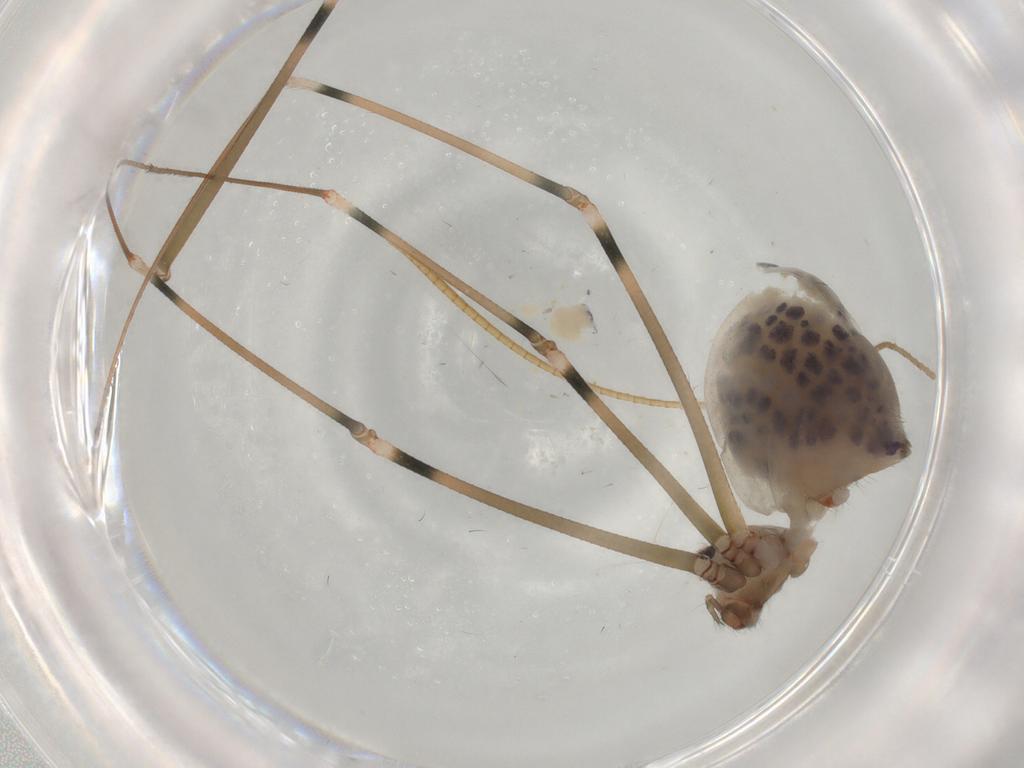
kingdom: Animalia
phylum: Arthropoda
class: Arachnida
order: Araneae
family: Pholcidae
